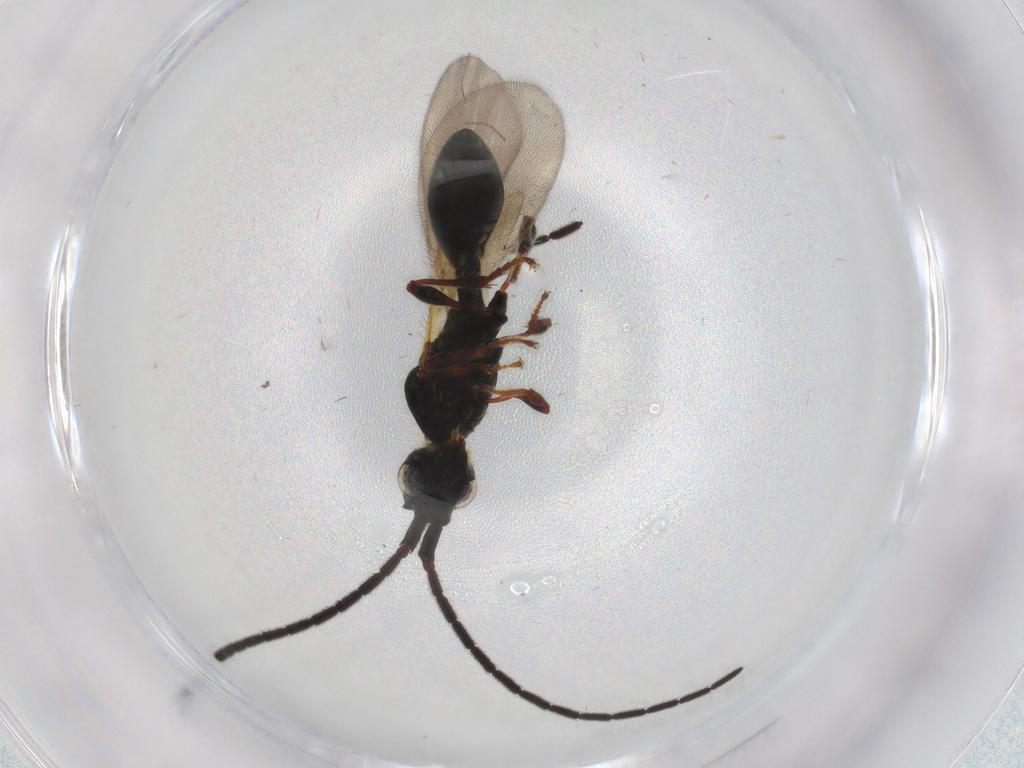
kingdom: Animalia
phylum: Arthropoda
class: Insecta
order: Hymenoptera
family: Diapriidae
